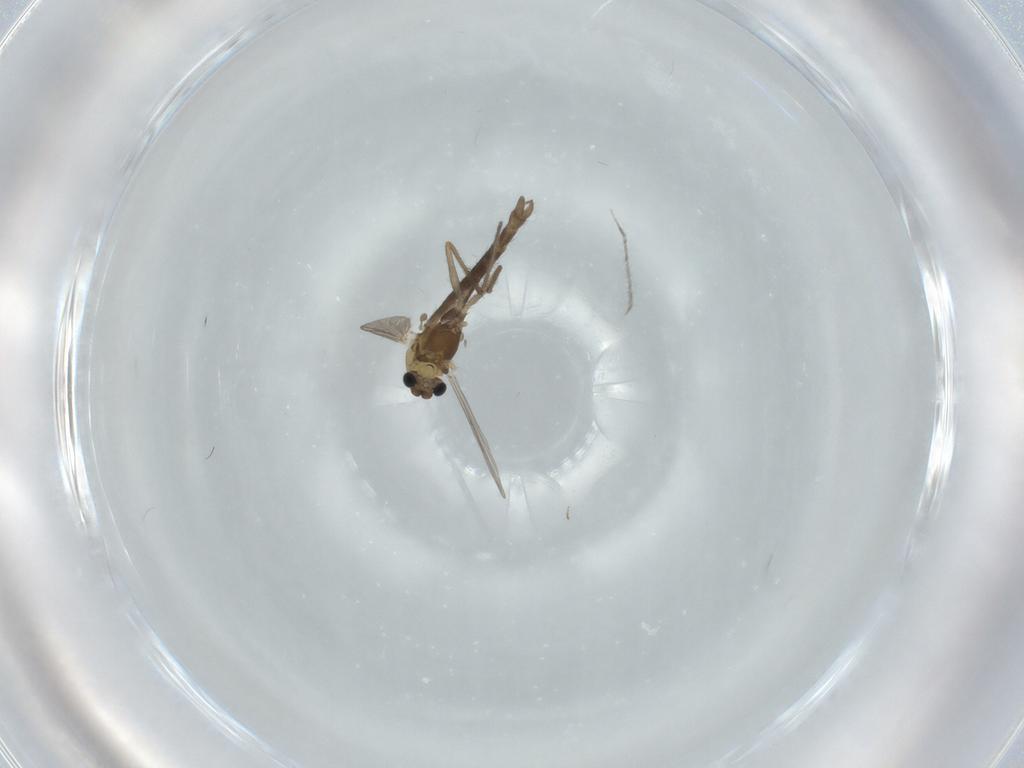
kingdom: Animalia
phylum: Arthropoda
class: Insecta
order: Diptera
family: Chironomidae
